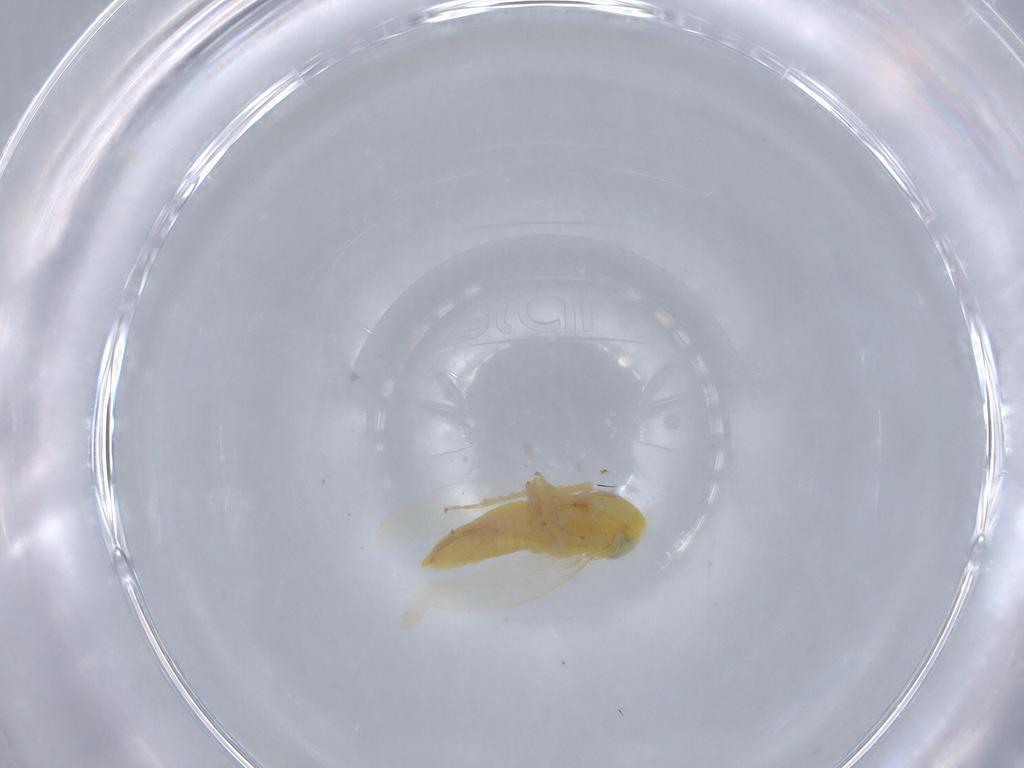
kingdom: Animalia
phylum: Arthropoda
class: Insecta
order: Hemiptera
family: Cicadellidae
